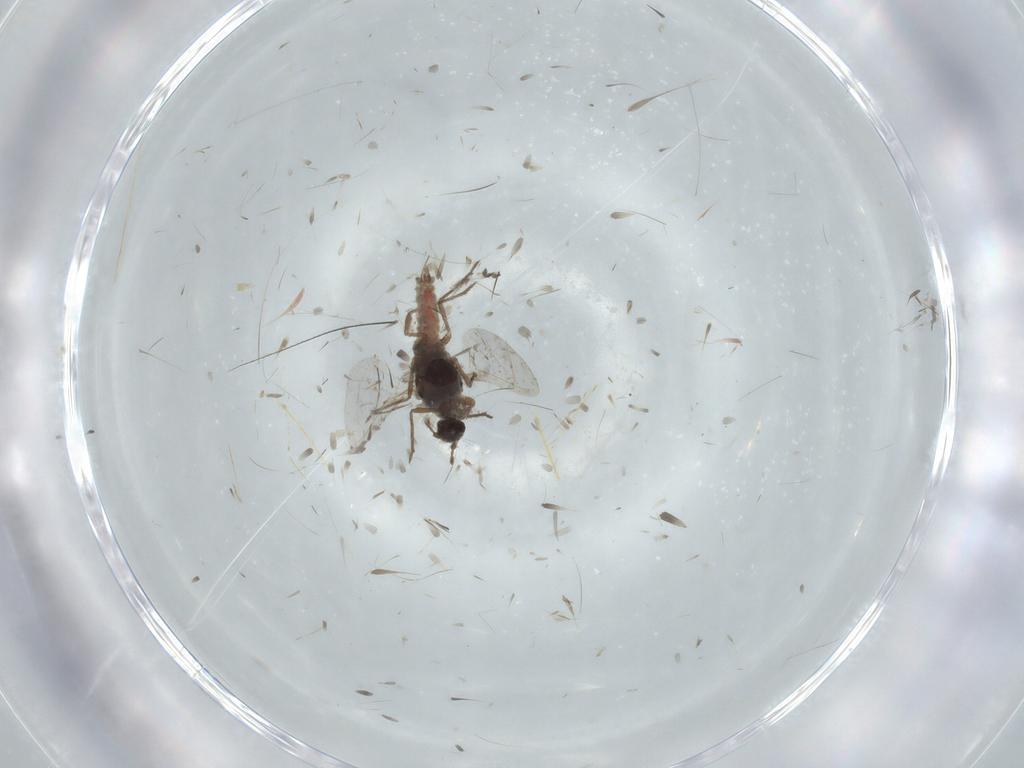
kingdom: Animalia
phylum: Arthropoda
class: Insecta
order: Diptera
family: Cecidomyiidae
